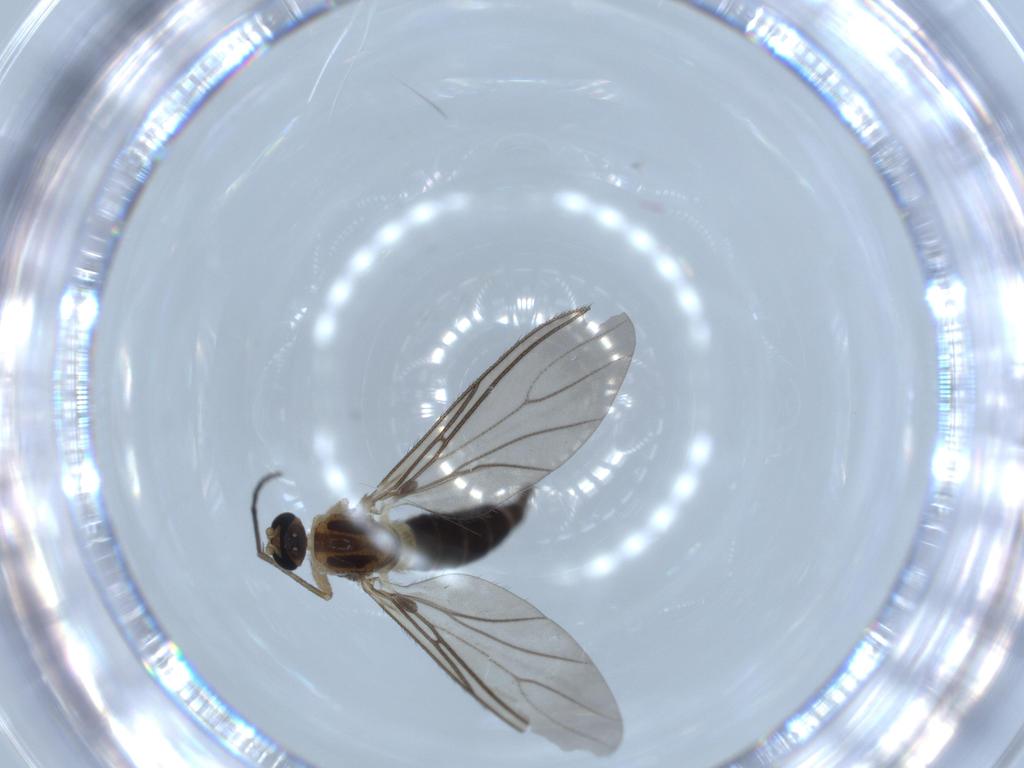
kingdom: Animalia
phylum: Arthropoda
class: Insecta
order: Diptera
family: Sciaridae
